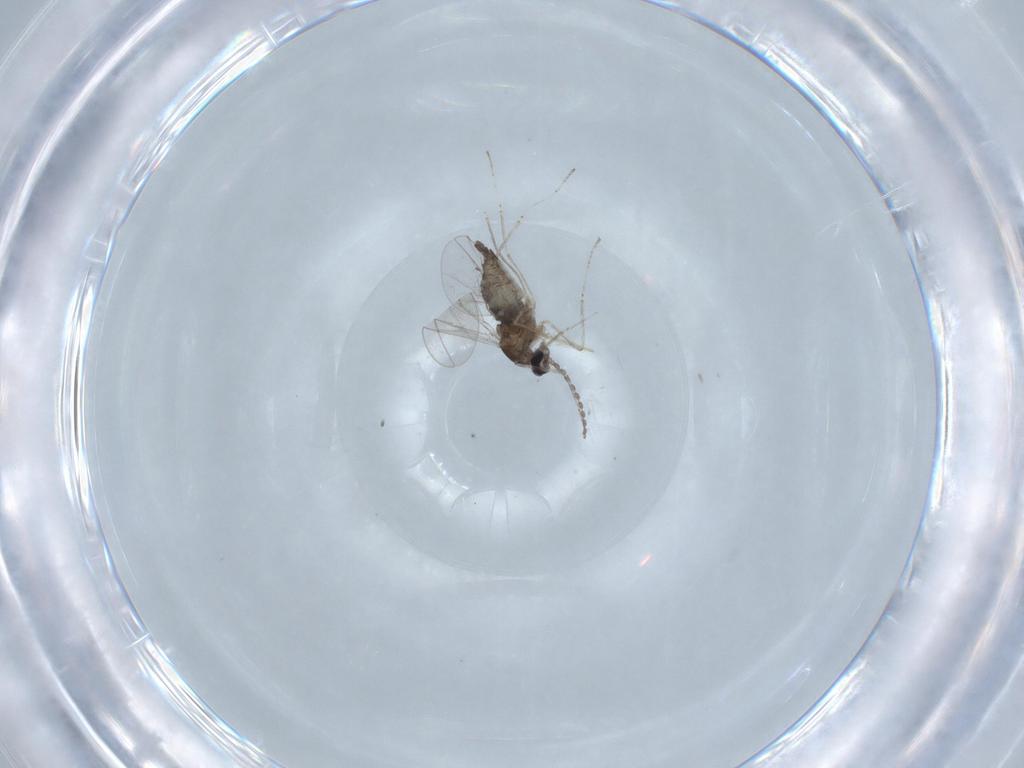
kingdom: Animalia
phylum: Arthropoda
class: Insecta
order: Diptera
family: Cecidomyiidae
